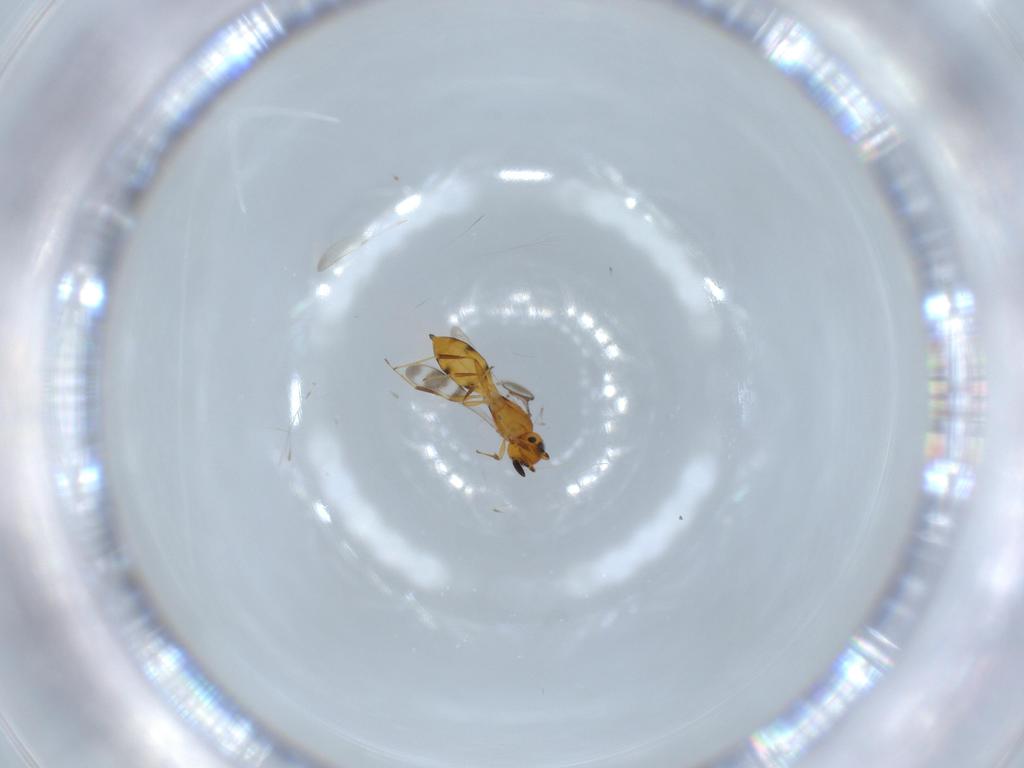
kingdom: Animalia
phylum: Arthropoda
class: Insecta
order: Hymenoptera
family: Scelionidae
